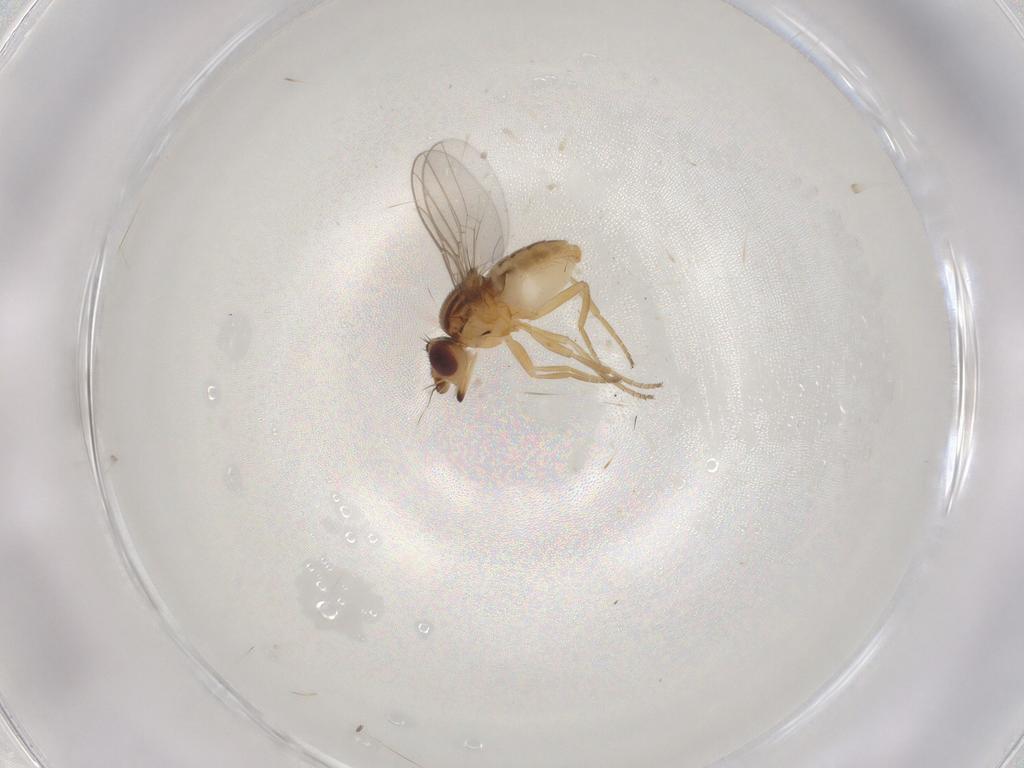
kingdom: Animalia
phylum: Arthropoda
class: Insecta
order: Diptera
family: Chloropidae
